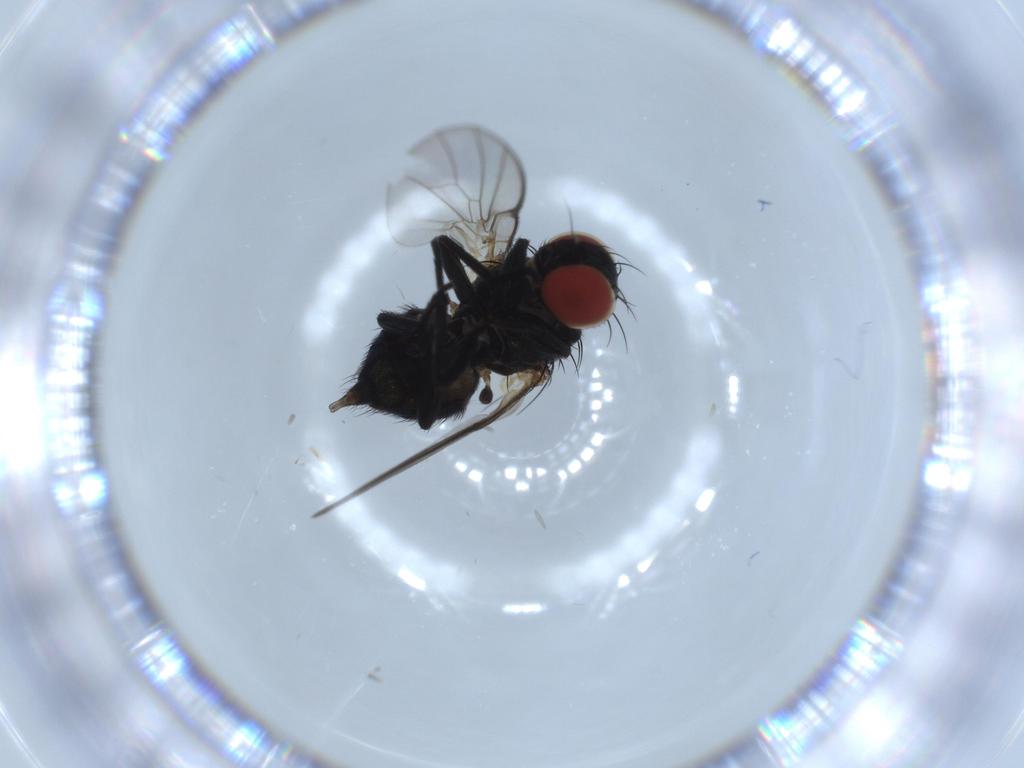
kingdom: Animalia
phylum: Arthropoda
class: Insecta
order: Diptera
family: Agromyzidae
